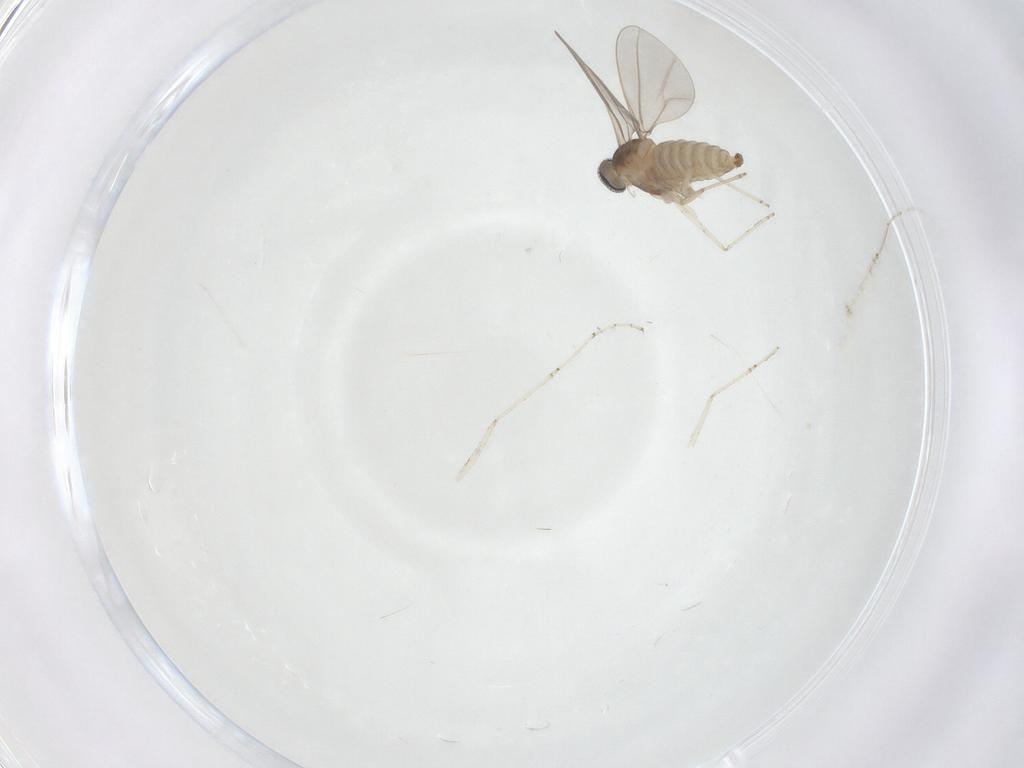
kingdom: Animalia
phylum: Arthropoda
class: Insecta
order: Diptera
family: Cecidomyiidae
